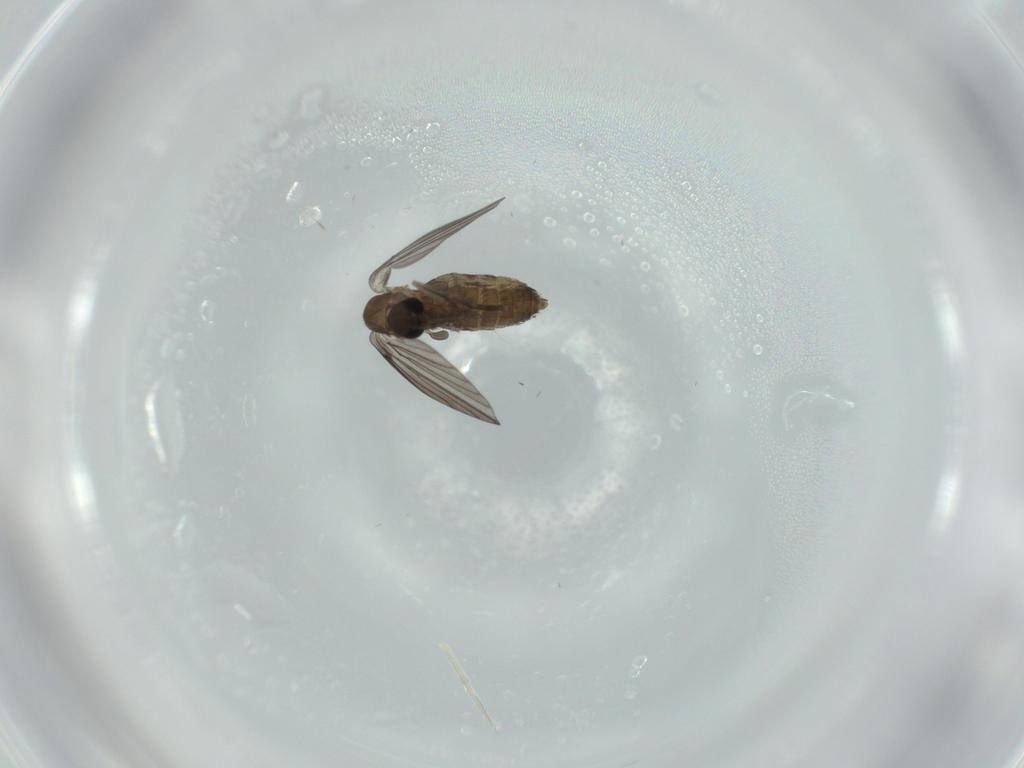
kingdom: Animalia
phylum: Arthropoda
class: Insecta
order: Diptera
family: Psychodidae
